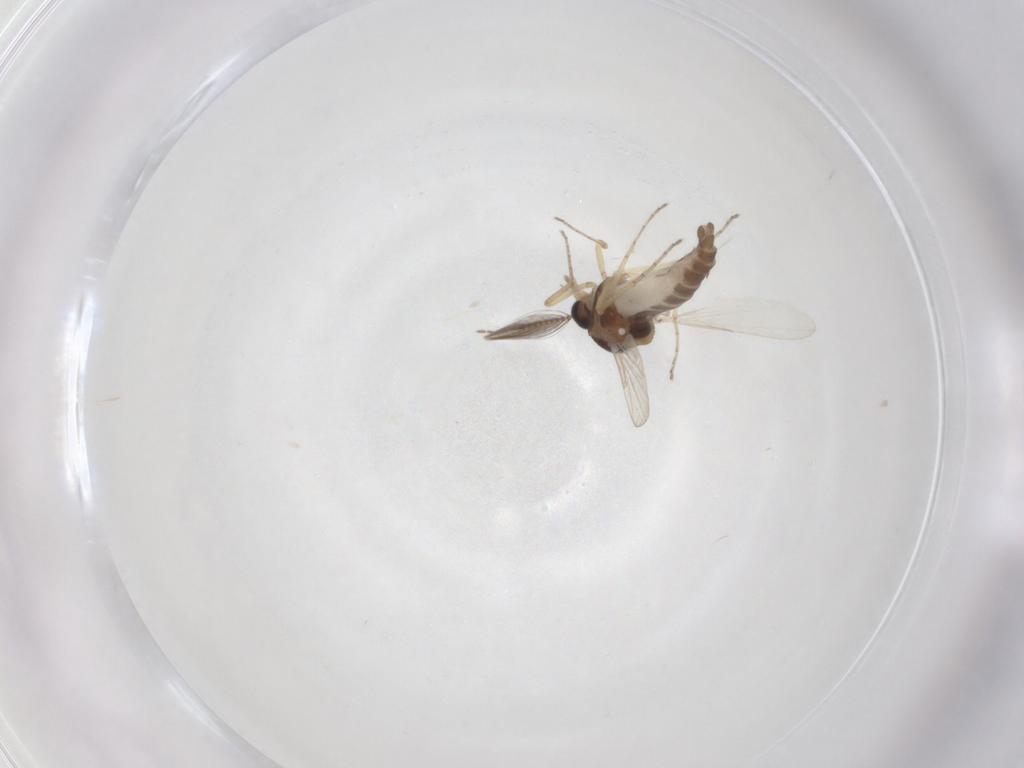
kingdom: Animalia
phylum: Arthropoda
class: Insecta
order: Diptera
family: Ceratopogonidae
